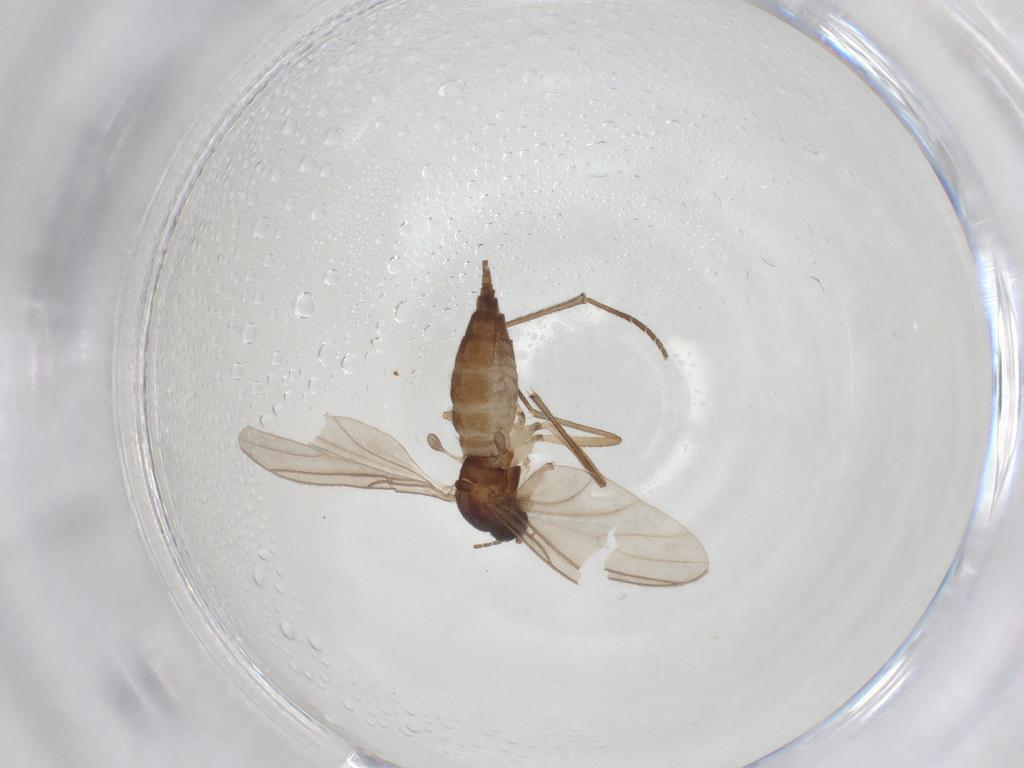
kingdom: Animalia
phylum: Arthropoda
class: Insecta
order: Diptera
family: Sciaridae
